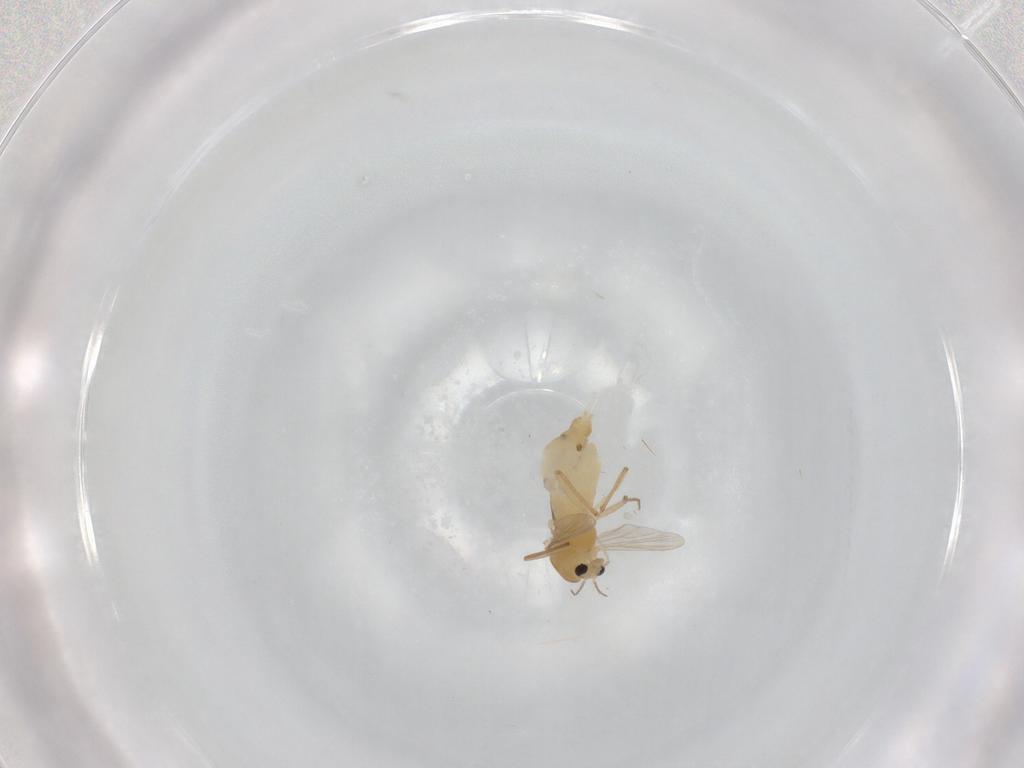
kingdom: Animalia
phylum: Arthropoda
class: Insecta
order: Diptera
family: Chironomidae
